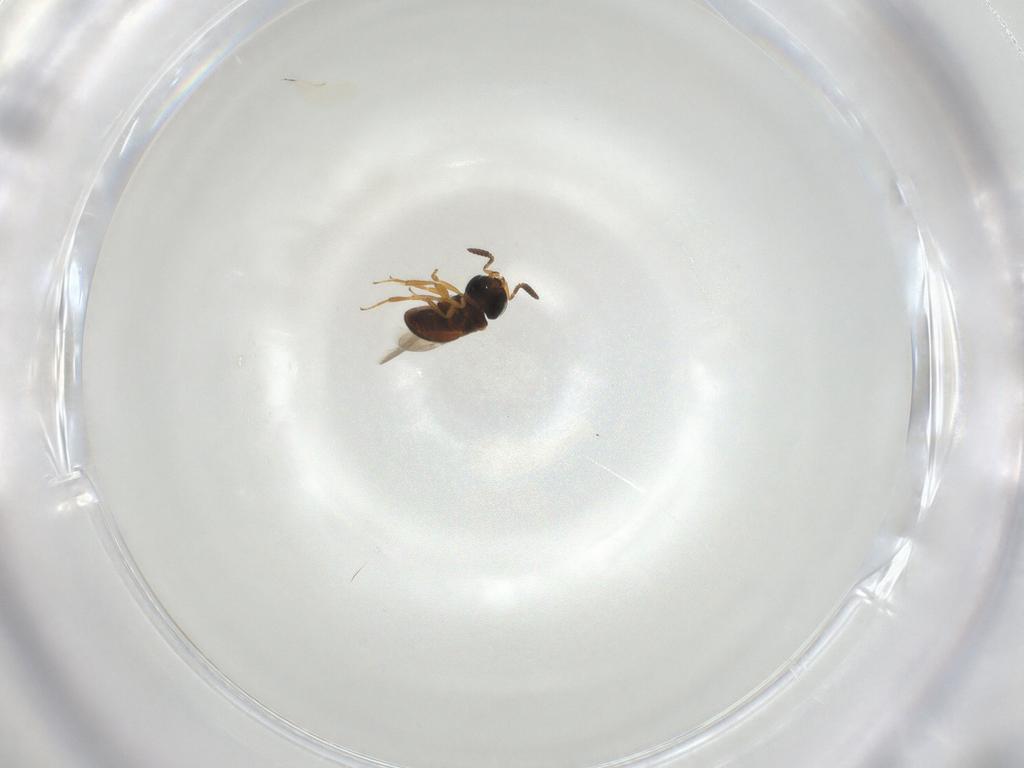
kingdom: Animalia
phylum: Arthropoda
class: Insecta
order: Hymenoptera
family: Scelionidae
